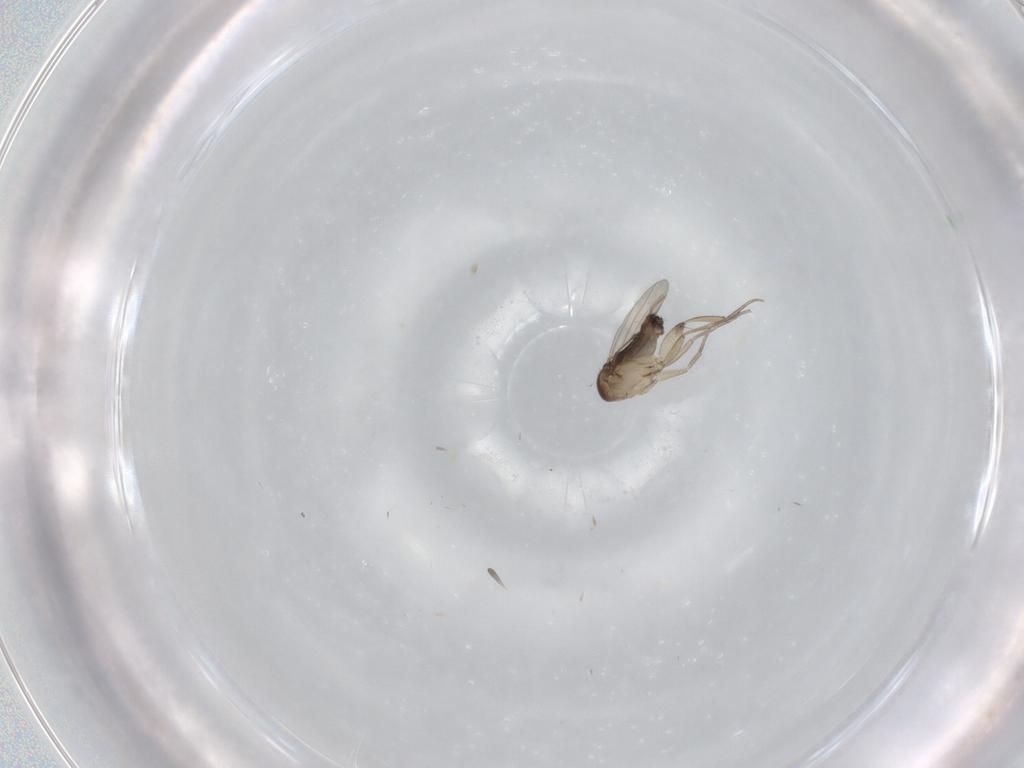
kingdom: Animalia
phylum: Arthropoda
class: Insecta
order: Diptera
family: Phoridae
